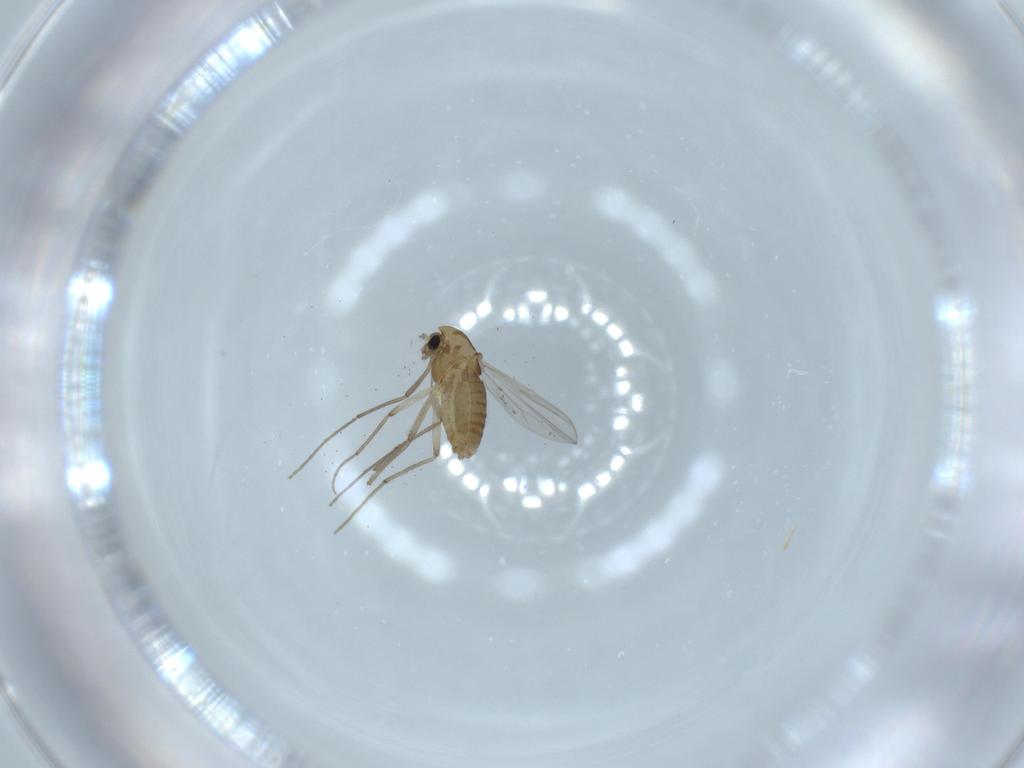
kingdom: Animalia
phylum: Arthropoda
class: Insecta
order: Diptera
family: Chironomidae
